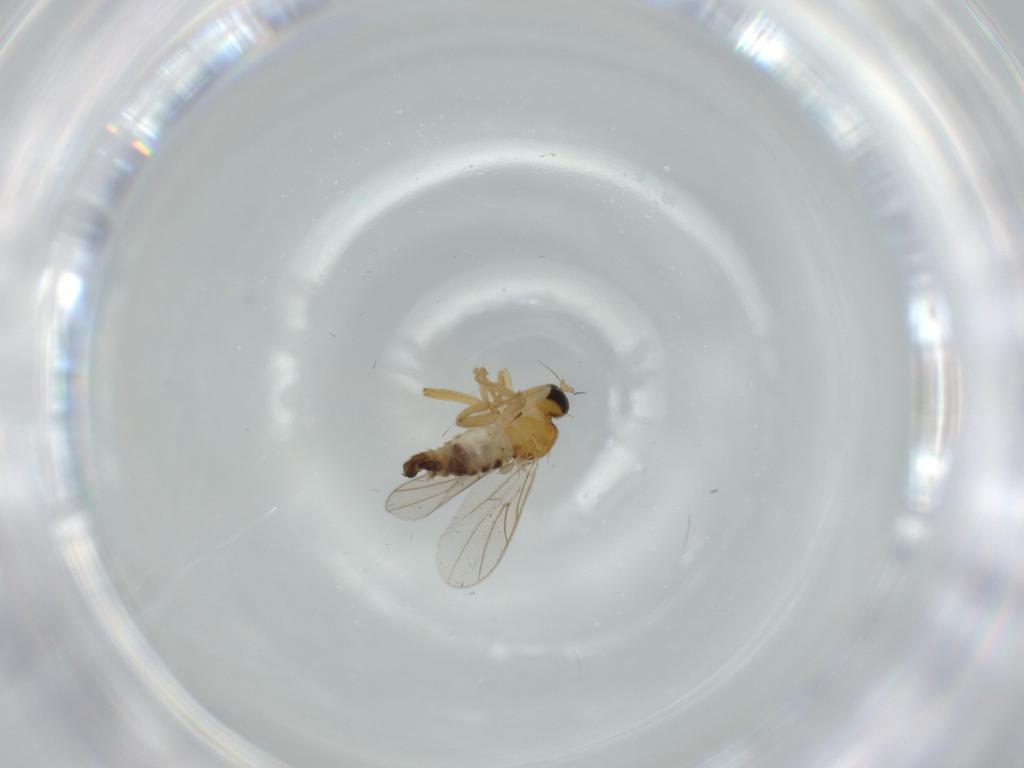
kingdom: Animalia
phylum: Arthropoda
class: Insecta
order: Diptera
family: Hybotidae
